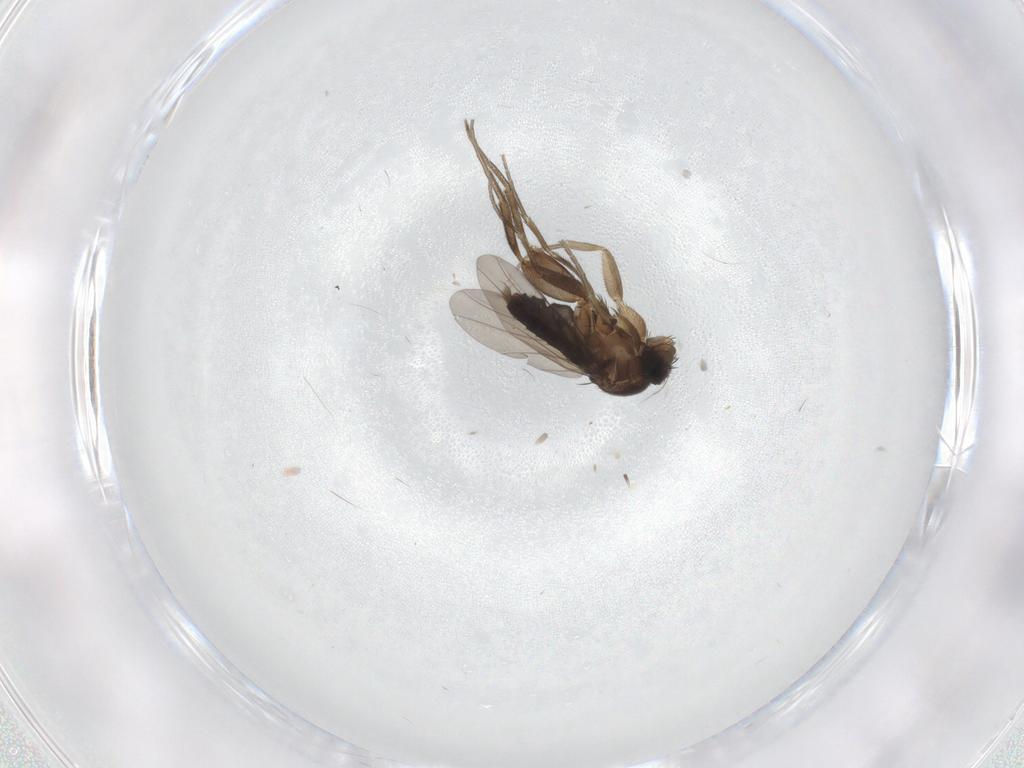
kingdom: Animalia
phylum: Arthropoda
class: Insecta
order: Diptera
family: Phoridae
